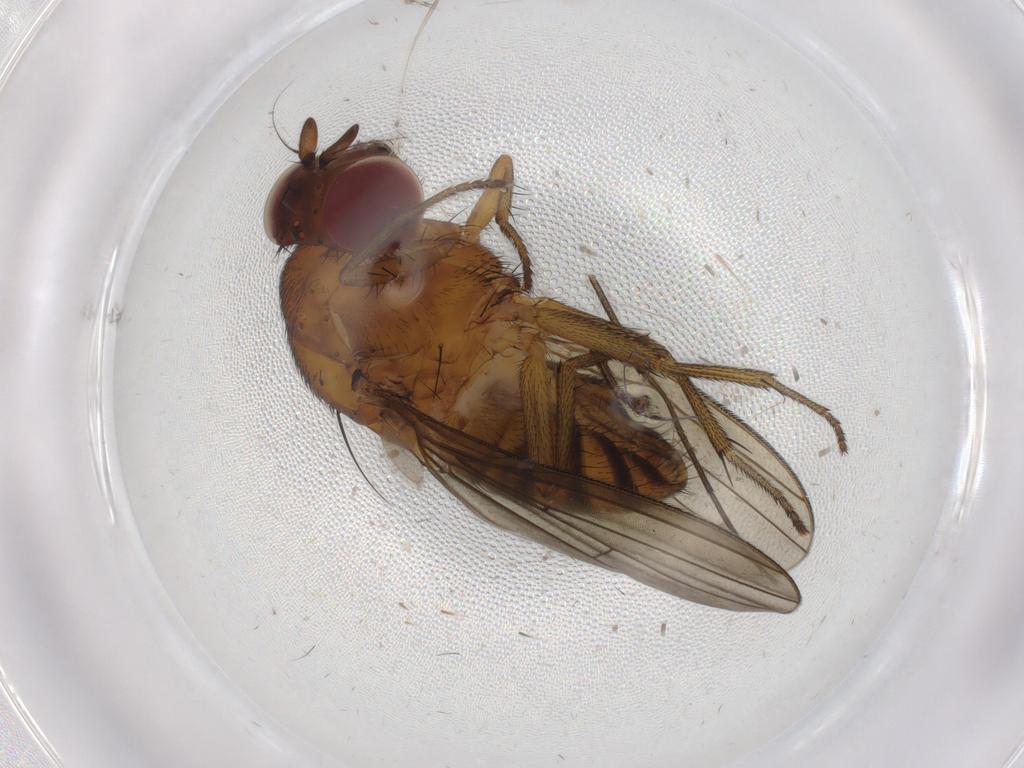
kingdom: Animalia
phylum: Arthropoda
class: Insecta
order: Diptera
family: Cecidomyiidae
